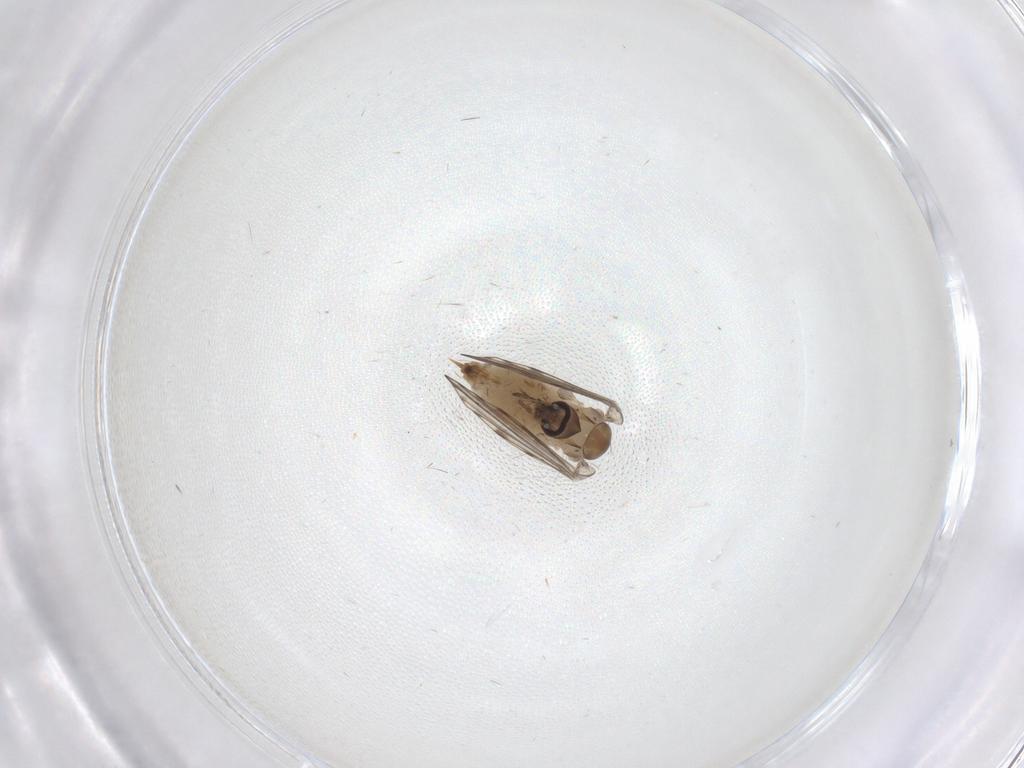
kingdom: Animalia
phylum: Arthropoda
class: Insecta
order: Diptera
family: Psychodidae
